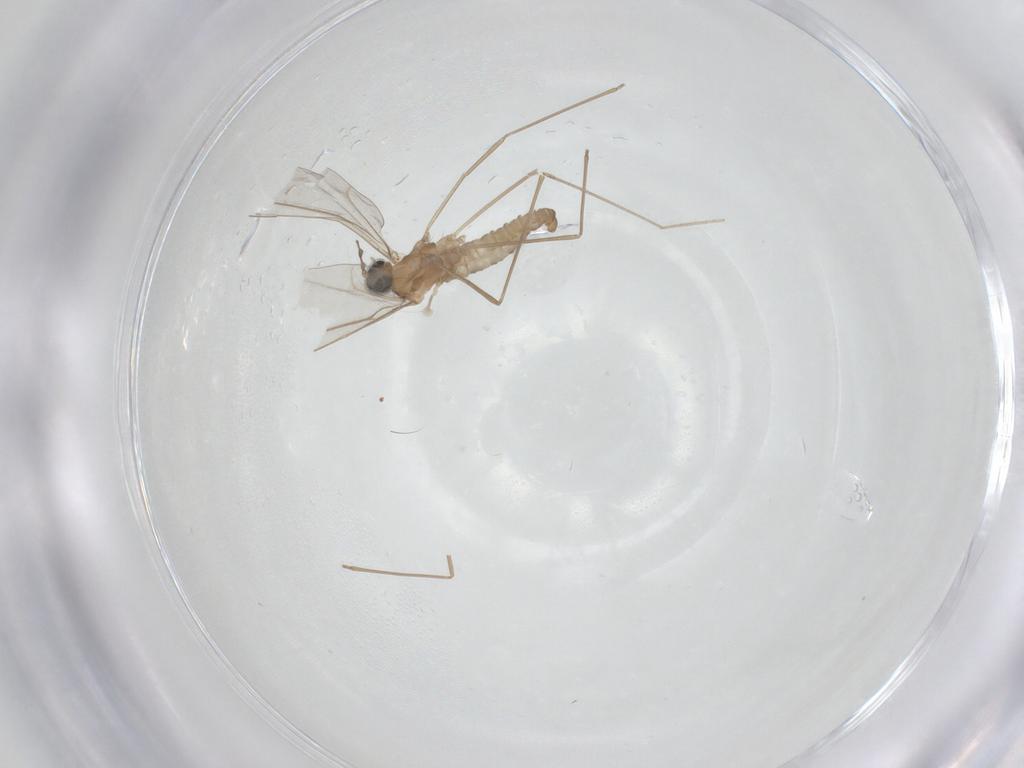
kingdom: Animalia
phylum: Arthropoda
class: Insecta
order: Diptera
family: Cecidomyiidae
